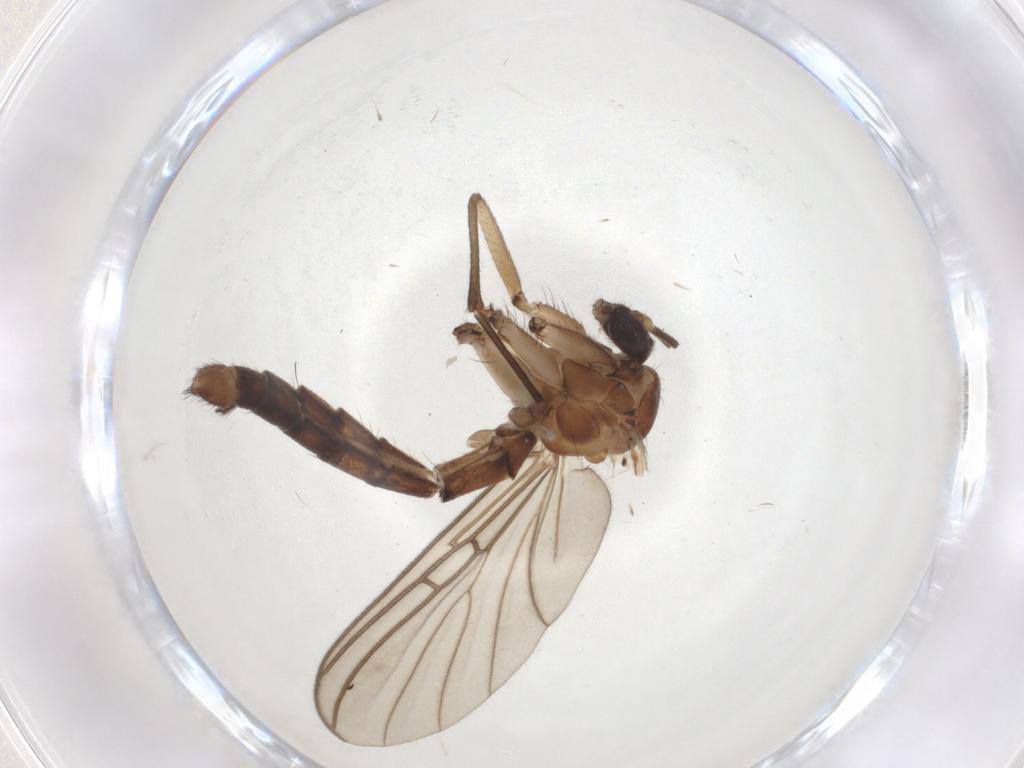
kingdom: Animalia
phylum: Arthropoda
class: Insecta
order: Diptera
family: Mycetophilidae
